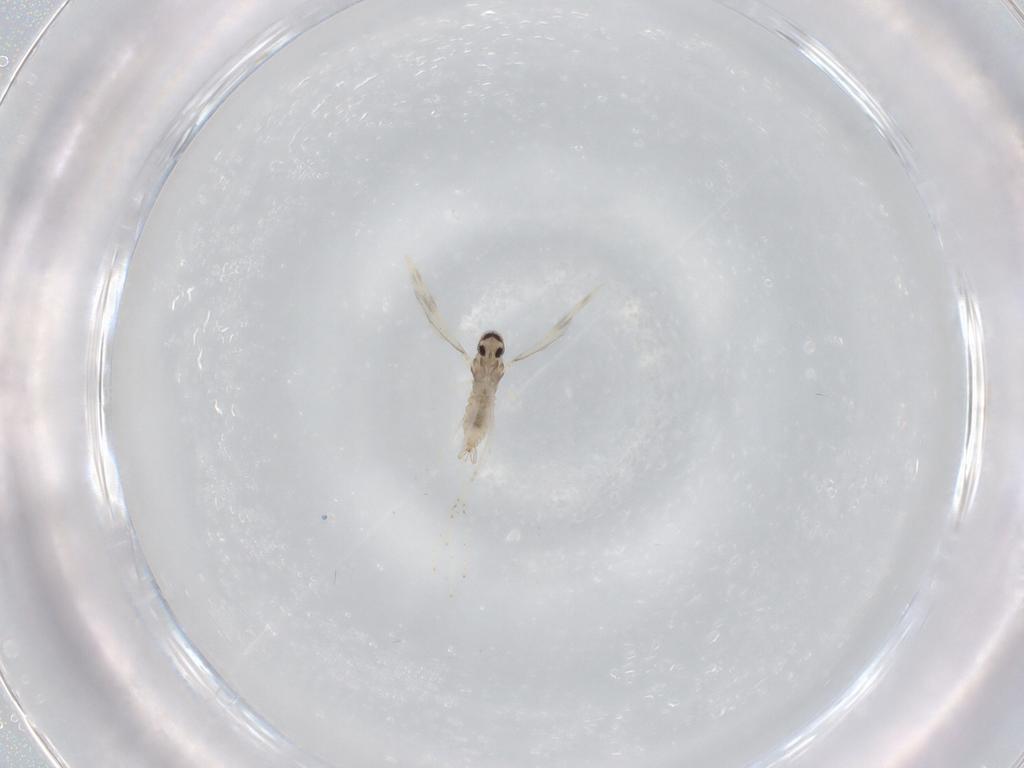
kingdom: Animalia
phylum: Arthropoda
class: Insecta
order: Diptera
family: Cecidomyiidae
